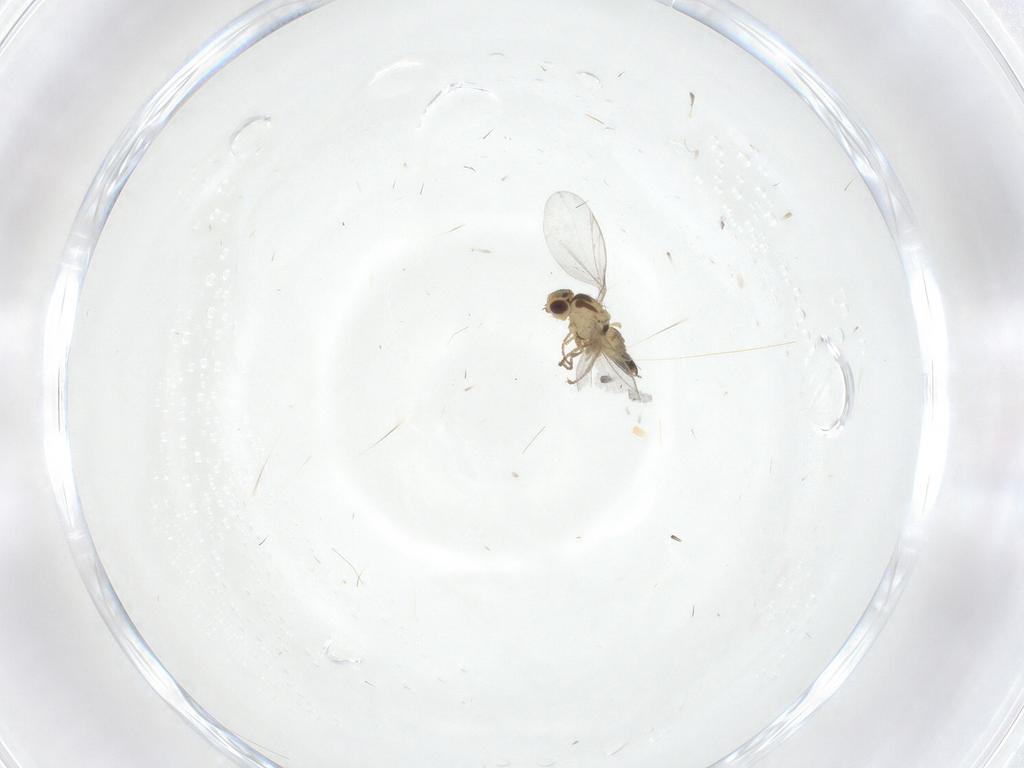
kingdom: Animalia
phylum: Arthropoda
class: Insecta
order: Diptera
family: Agromyzidae
